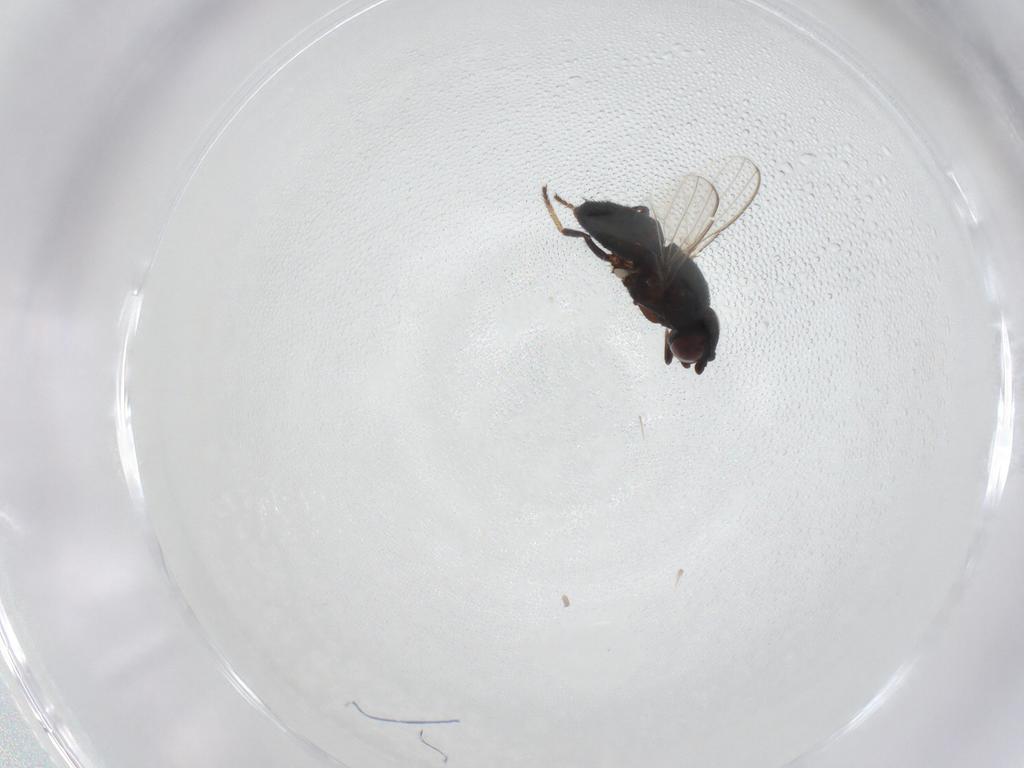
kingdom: Animalia
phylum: Arthropoda
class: Insecta
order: Diptera
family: Milichiidae
